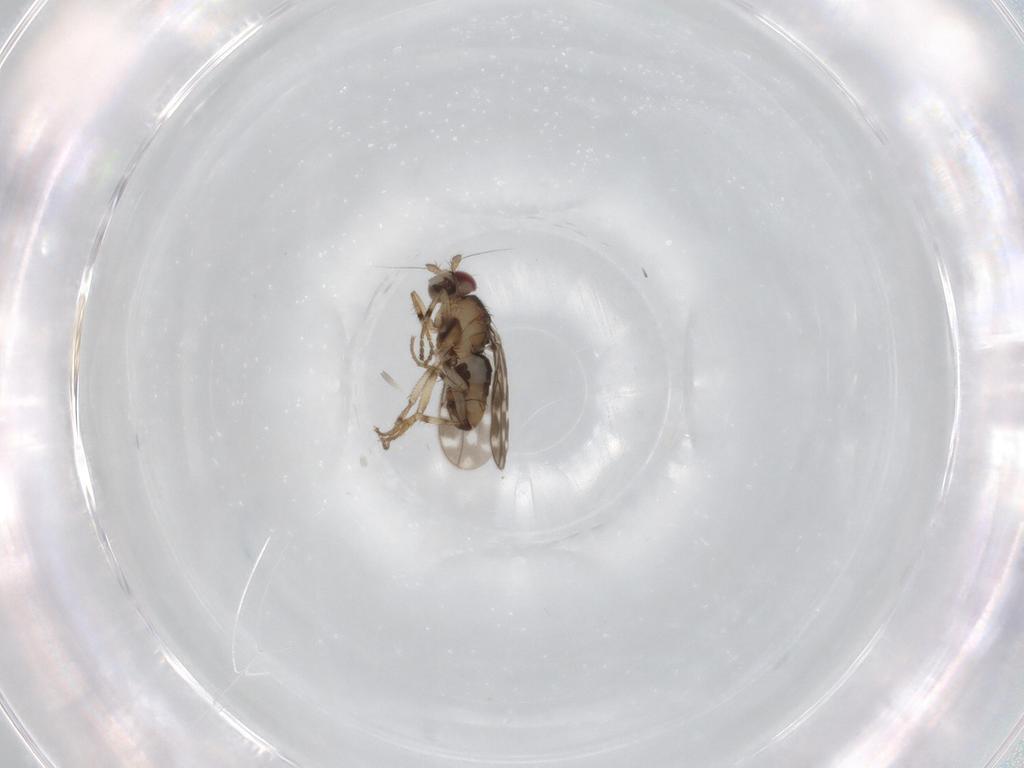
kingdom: Animalia
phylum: Arthropoda
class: Insecta
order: Diptera
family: Sphaeroceridae
